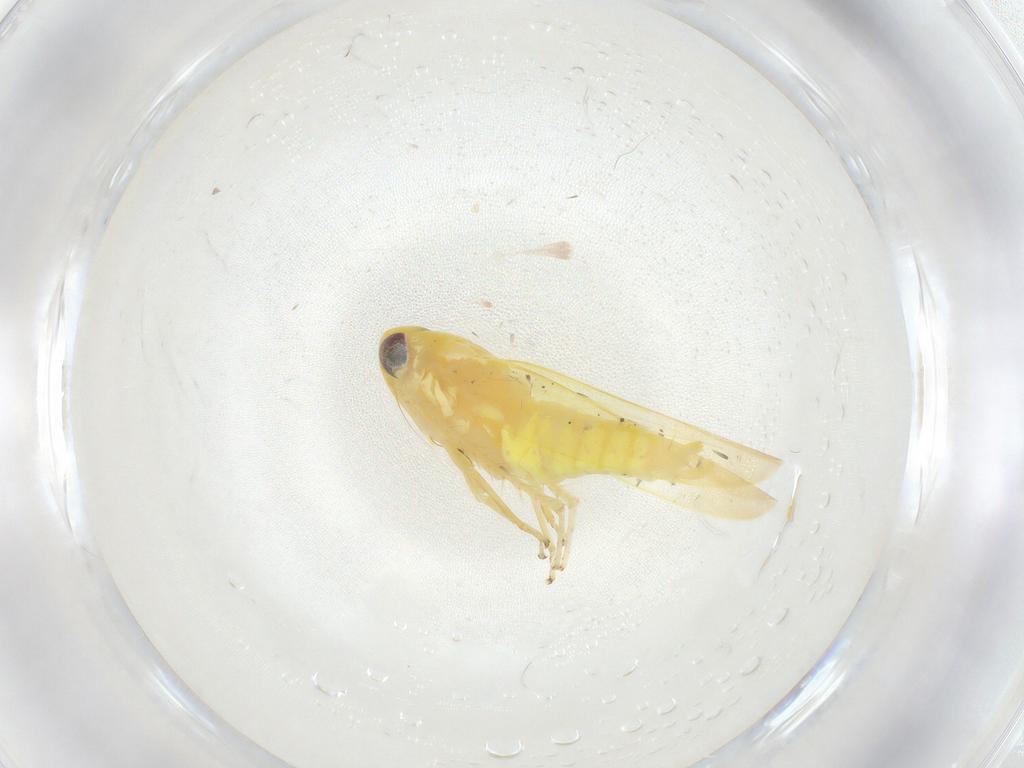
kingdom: Animalia
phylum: Arthropoda
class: Insecta
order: Hemiptera
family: Cicadellidae
